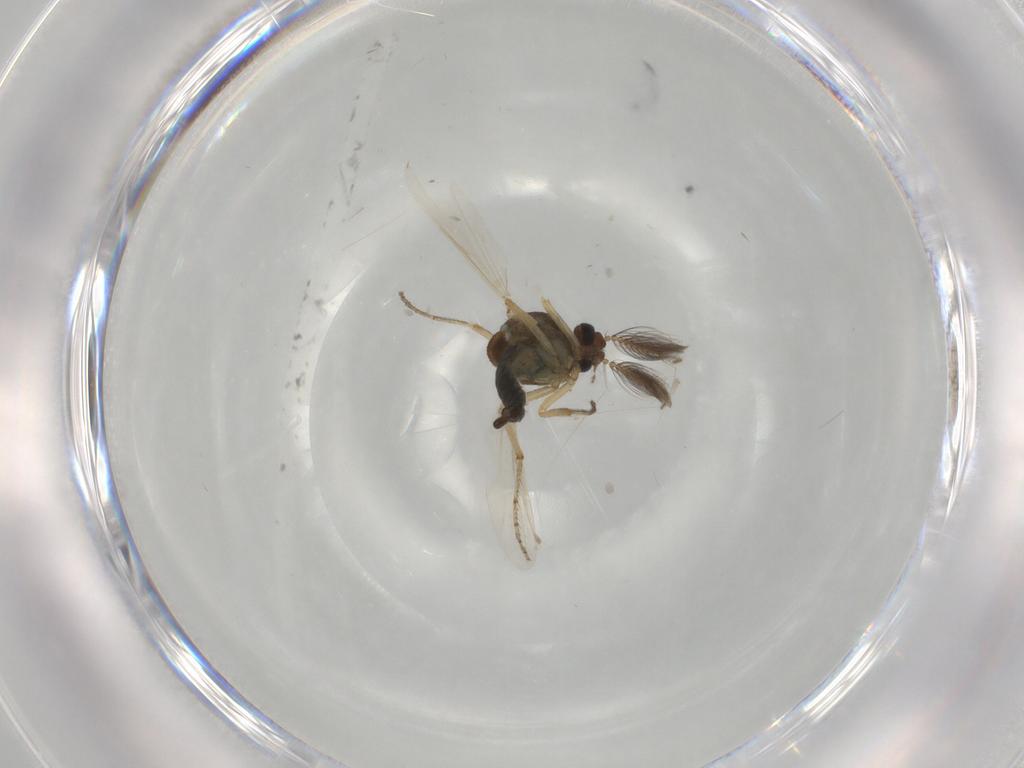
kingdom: Animalia
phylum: Arthropoda
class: Insecta
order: Diptera
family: Ceratopogonidae
